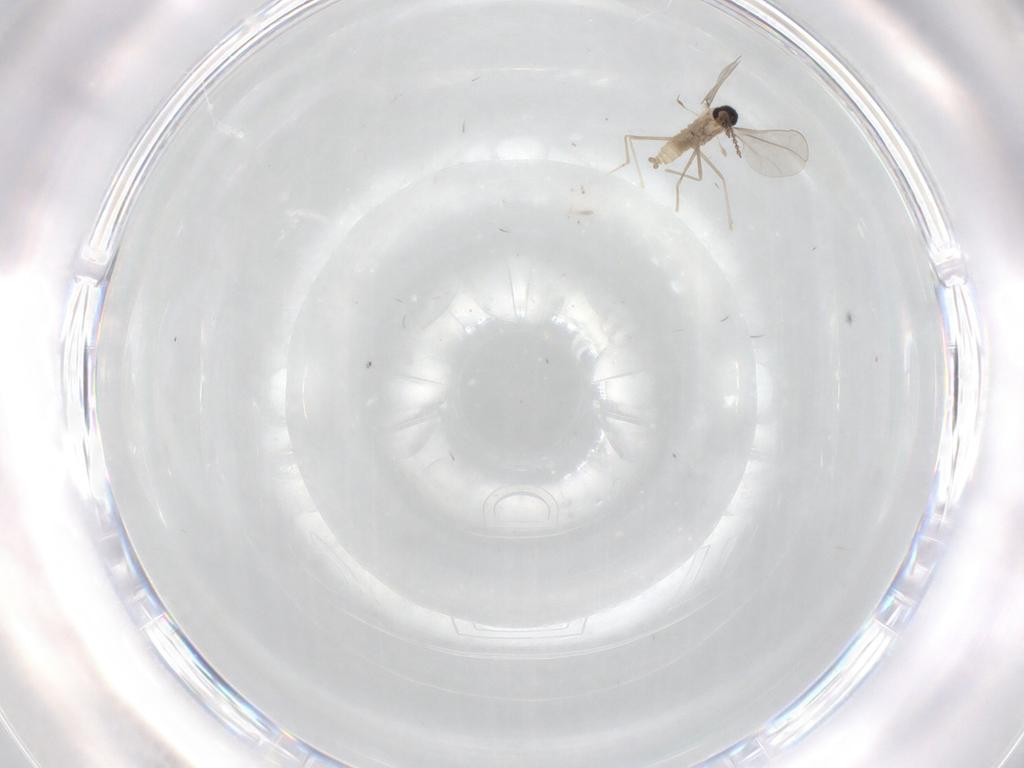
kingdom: Animalia
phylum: Arthropoda
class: Insecta
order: Diptera
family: Cecidomyiidae
